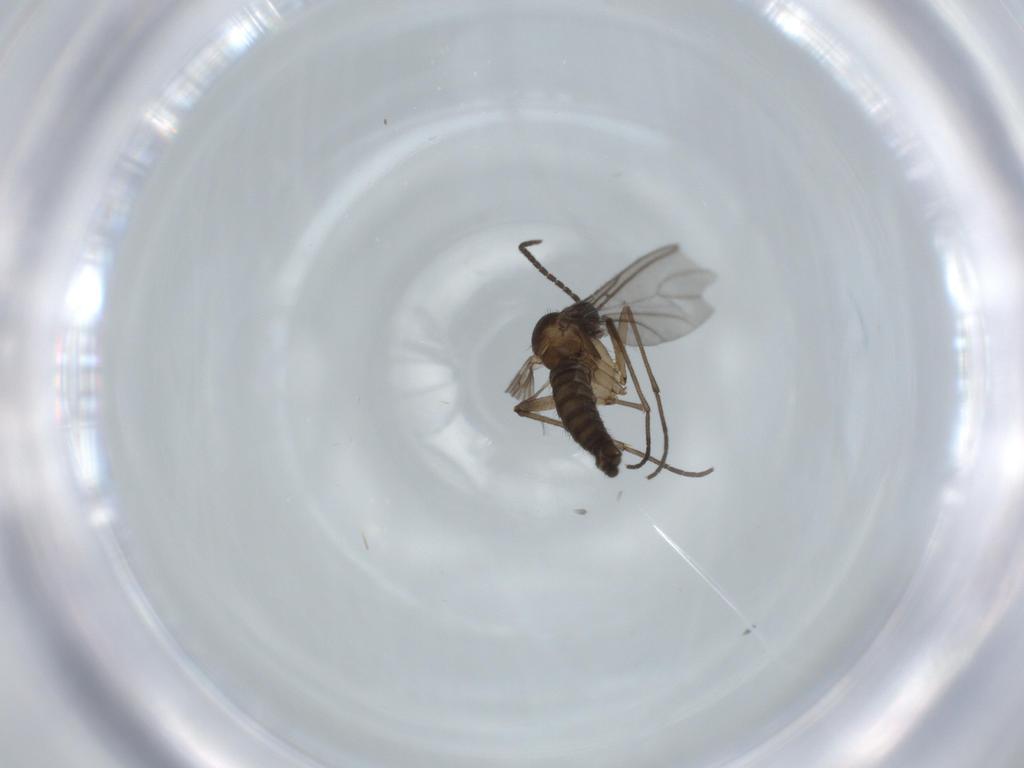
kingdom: Animalia
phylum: Arthropoda
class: Insecta
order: Diptera
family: Sciaridae
